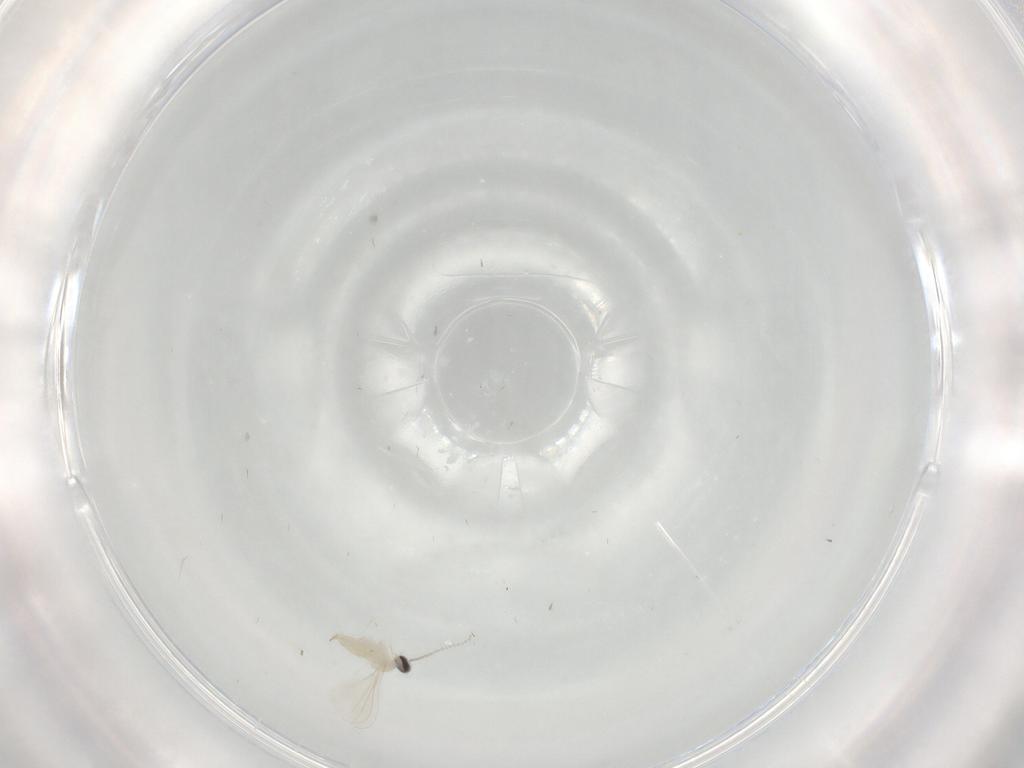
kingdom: Animalia
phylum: Arthropoda
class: Insecta
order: Diptera
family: Cecidomyiidae
